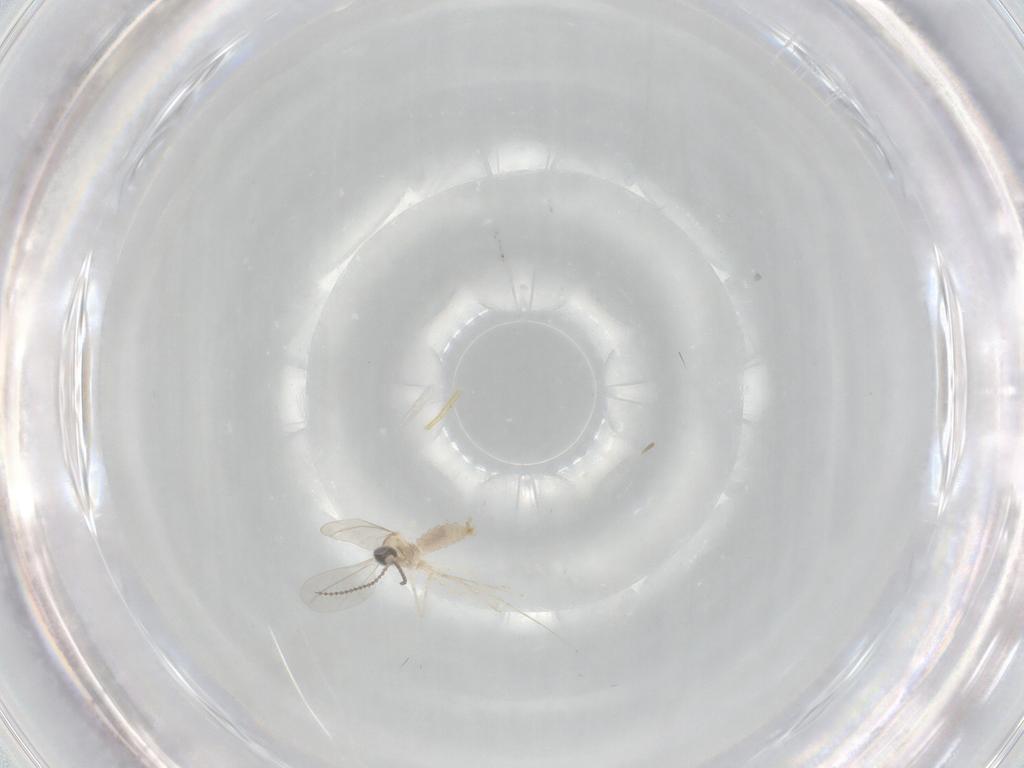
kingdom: Animalia
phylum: Arthropoda
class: Insecta
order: Diptera
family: Cecidomyiidae
